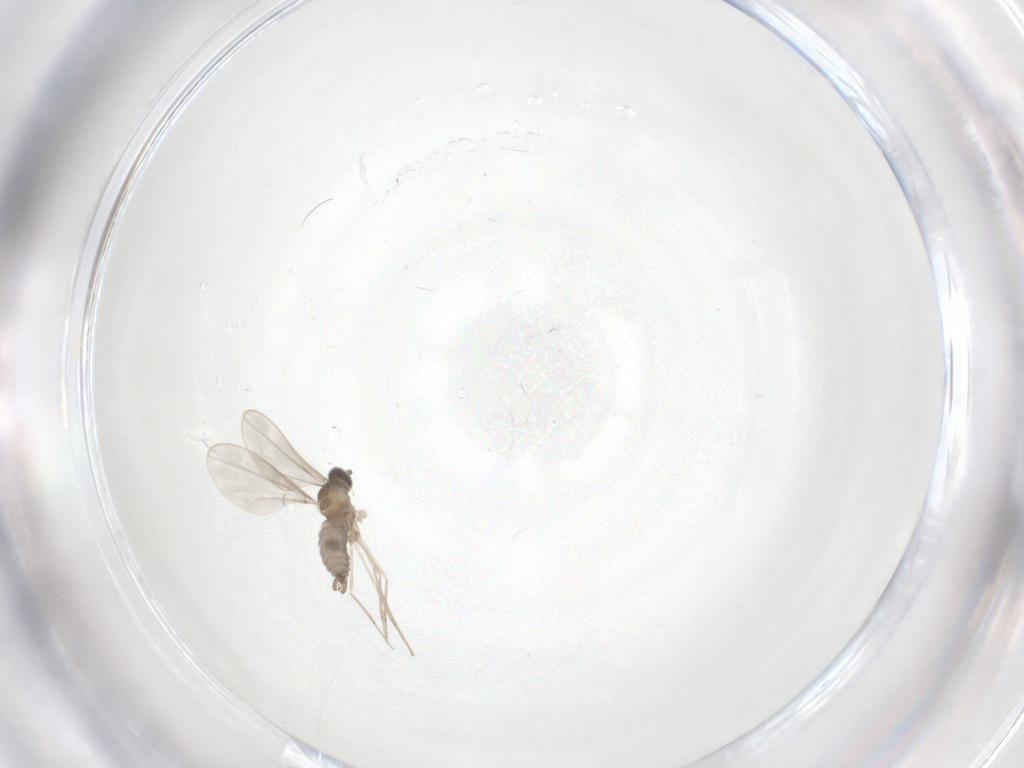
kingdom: Animalia
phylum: Arthropoda
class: Insecta
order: Diptera
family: Cecidomyiidae
